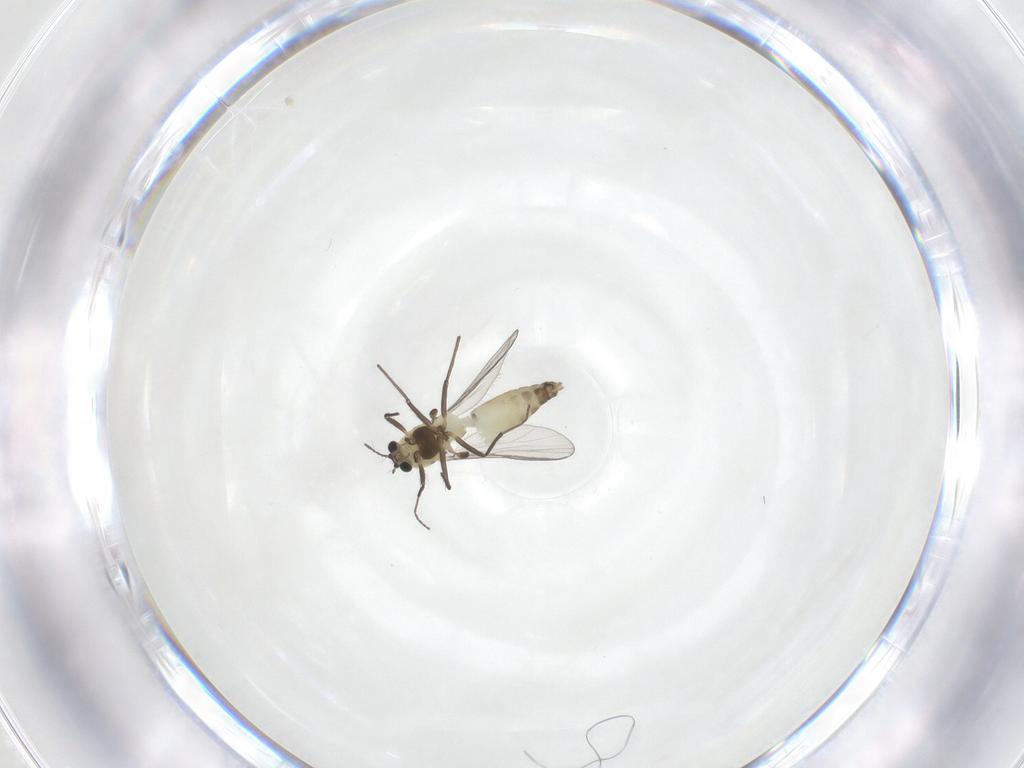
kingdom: Animalia
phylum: Arthropoda
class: Insecta
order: Diptera
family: Chironomidae
